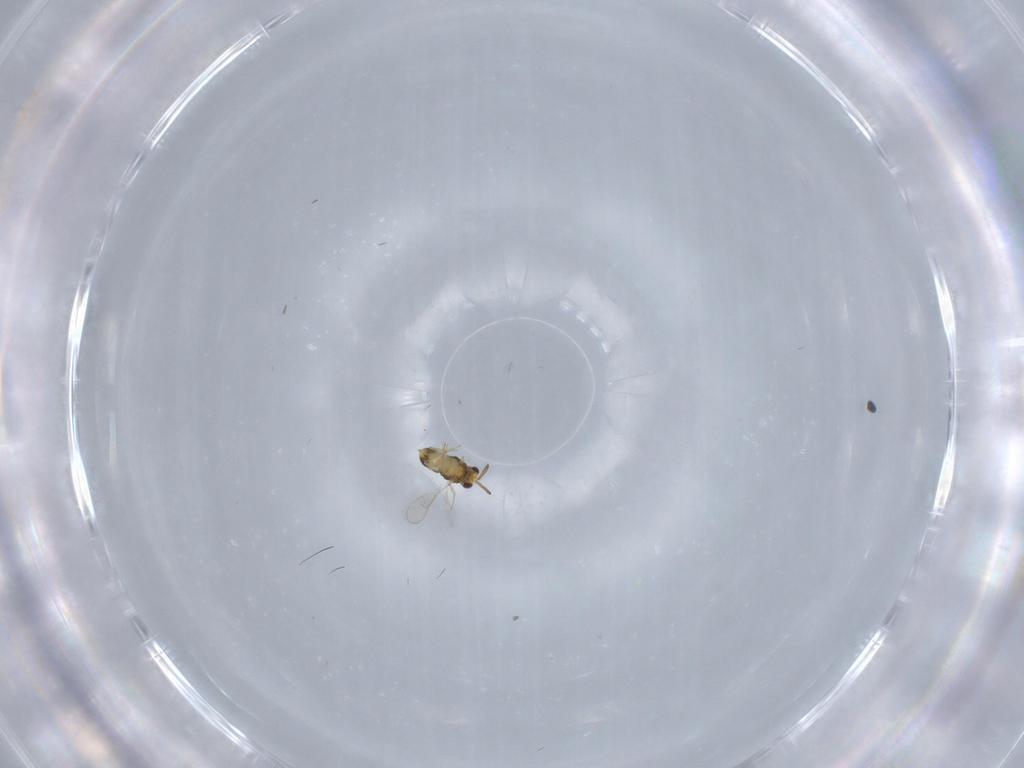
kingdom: Animalia
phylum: Arthropoda
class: Insecta
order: Hymenoptera
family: Aphelinidae
